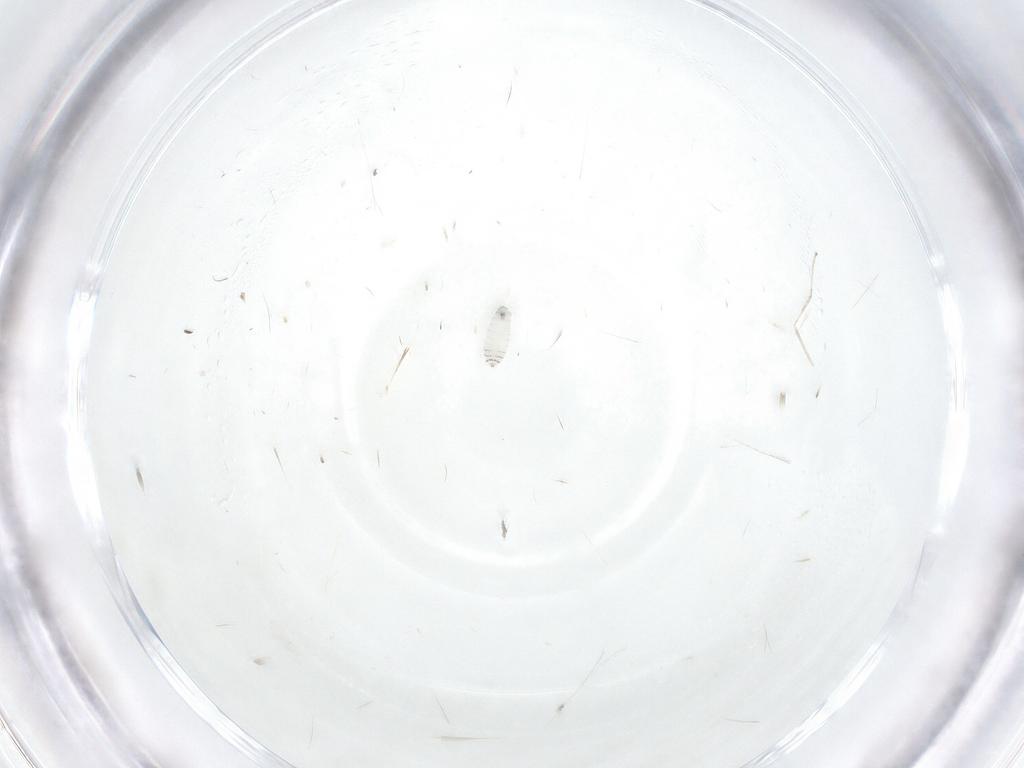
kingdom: Animalia
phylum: Arthropoda
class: Insecta
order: Diptera
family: Tachinidae
